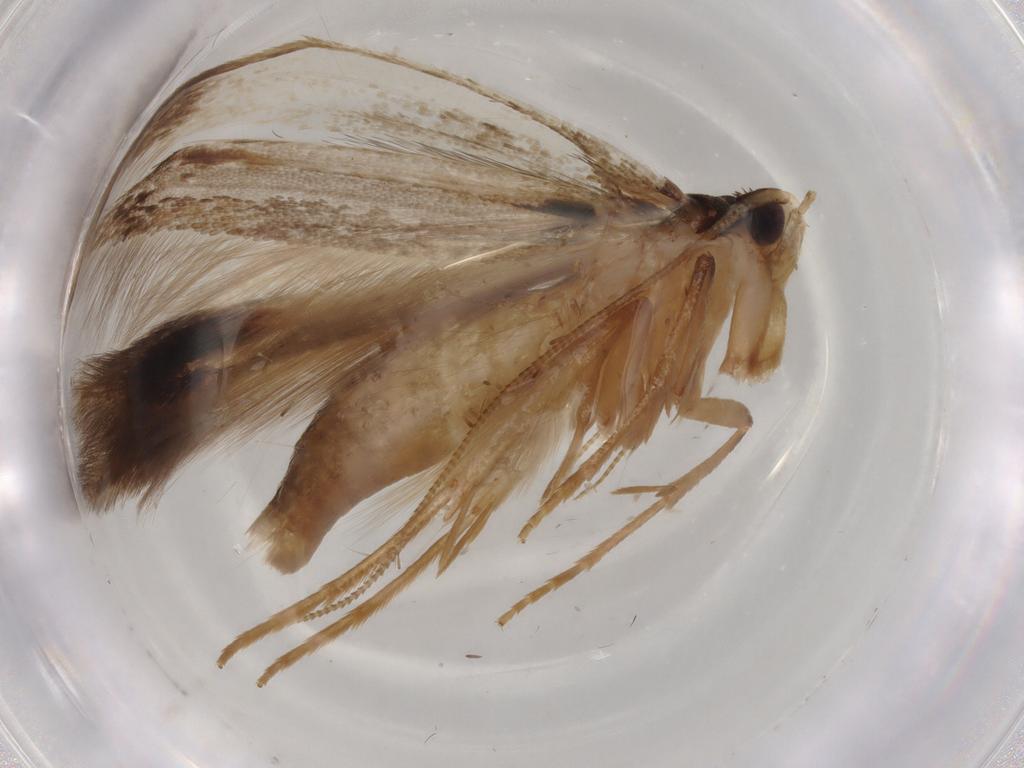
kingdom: Animalia
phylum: Arthropoda
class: Insecta
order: Lepidoptera
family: Tineidae
